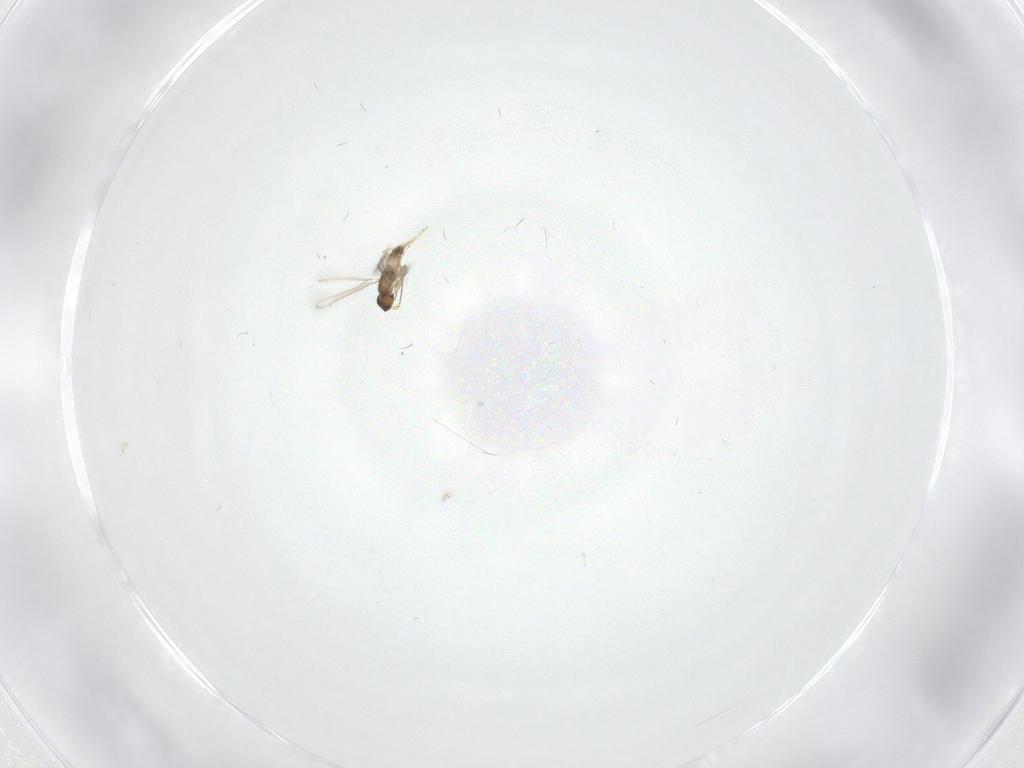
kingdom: Animalia
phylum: Arthropoda
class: Insecta
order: Hymenoptera
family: Mymaridae
